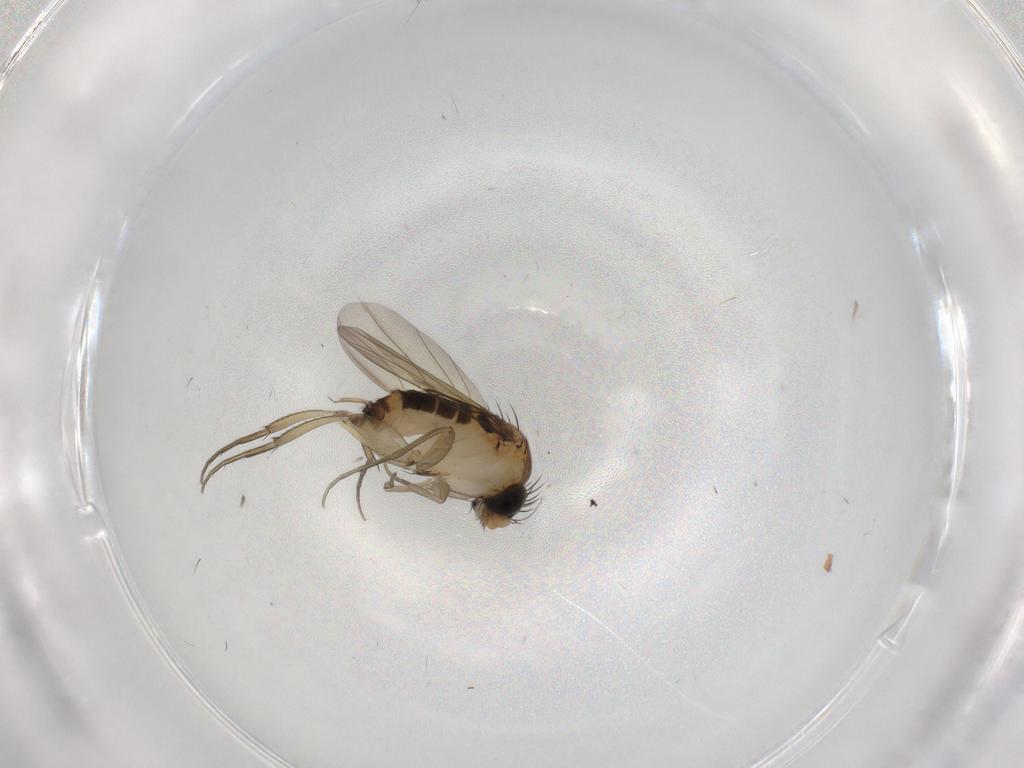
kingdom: Animalia
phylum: Arthropoda
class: Insecta
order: Diptera
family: Phoridae
